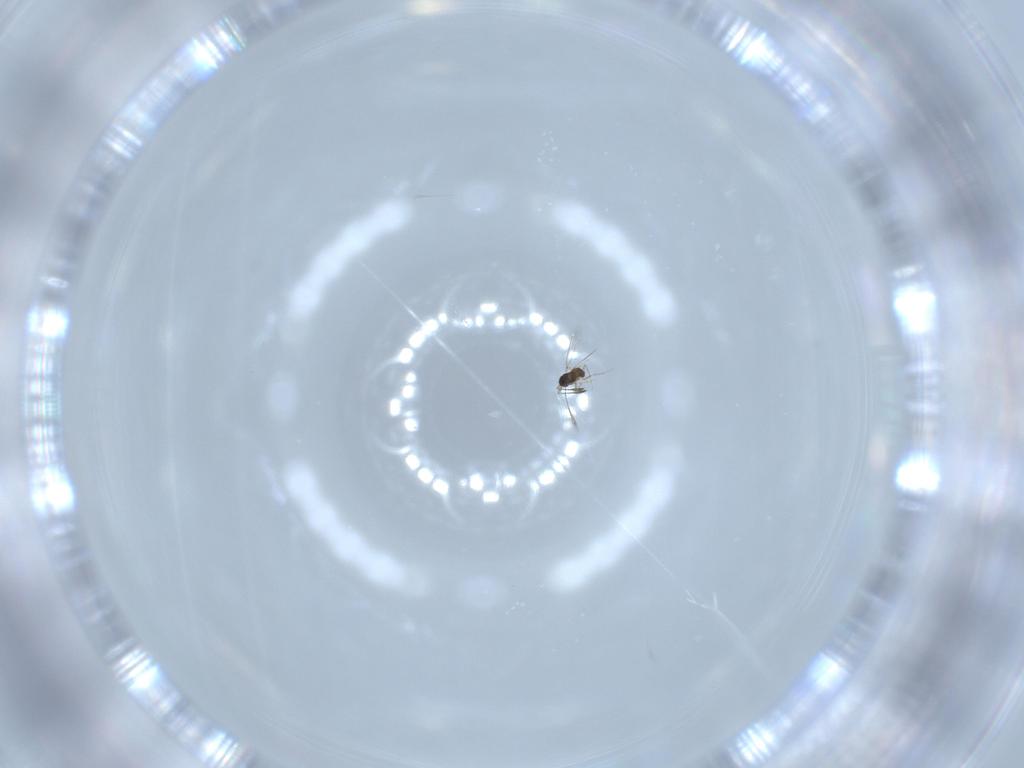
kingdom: Animalia
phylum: Arthropoda
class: Insecta
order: Hymenoptera
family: Mymaridae
